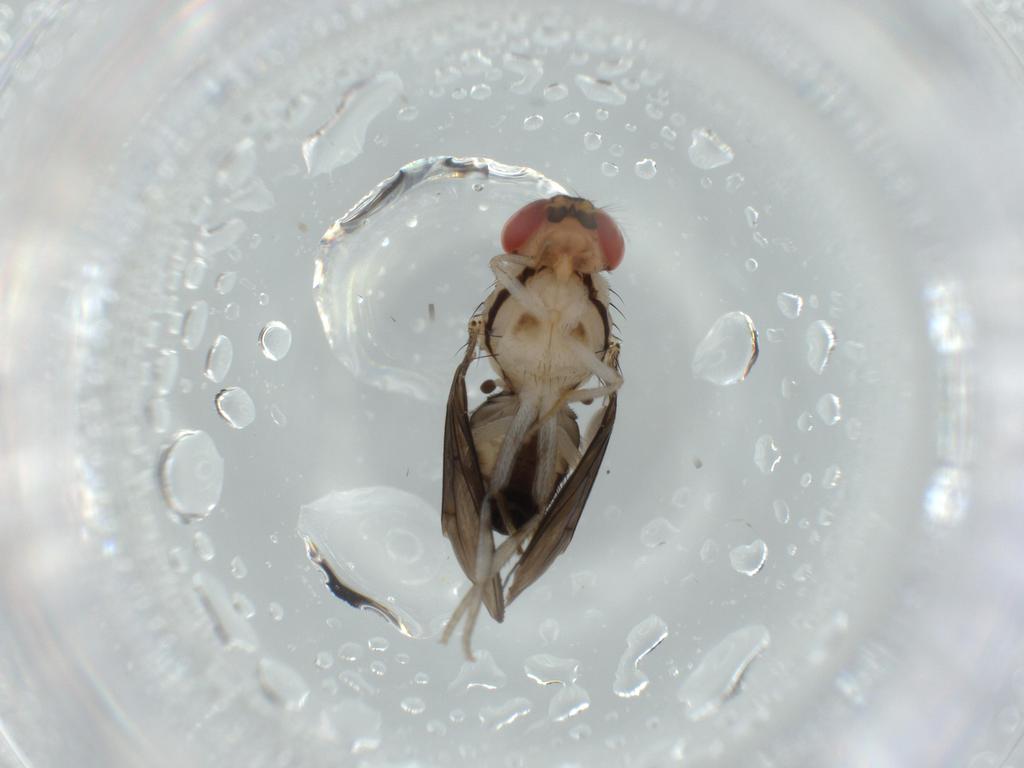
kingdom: Animalia
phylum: Arthropoda
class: Insecta
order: Diptera
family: Drosophilidae
